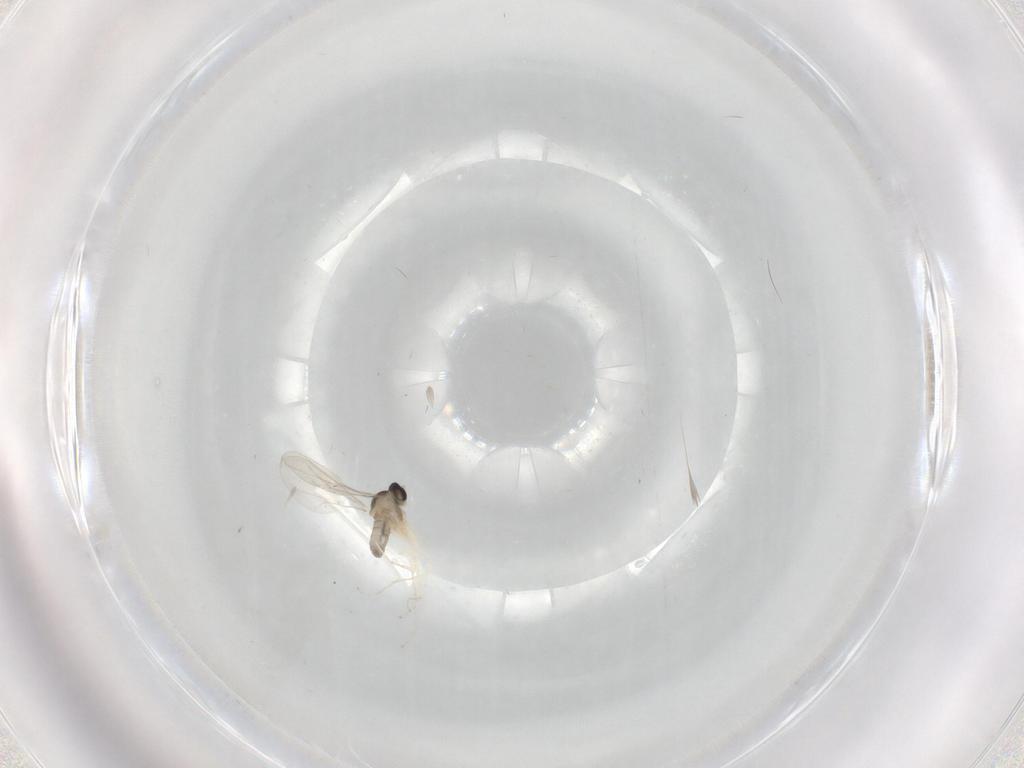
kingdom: Animalia
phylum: Arthropoda
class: Insecta
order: Diptera
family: Cecidomyiidae
